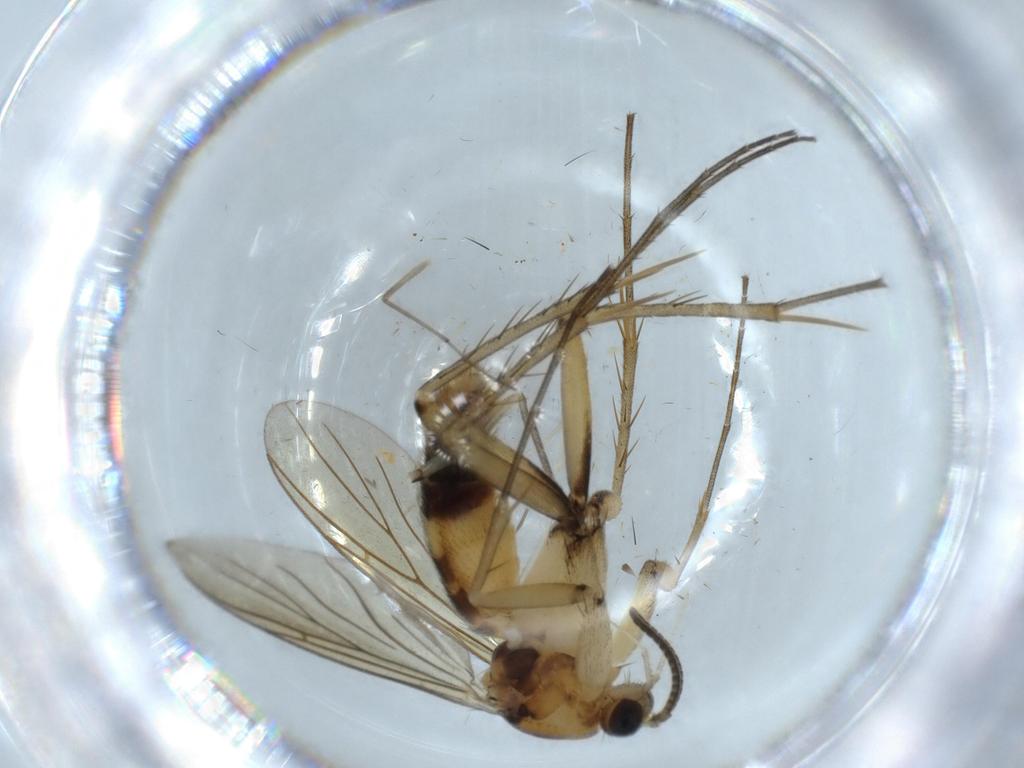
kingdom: Animalia
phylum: Arthropoda
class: Insecta
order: Diptera
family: Mycetophilidae
